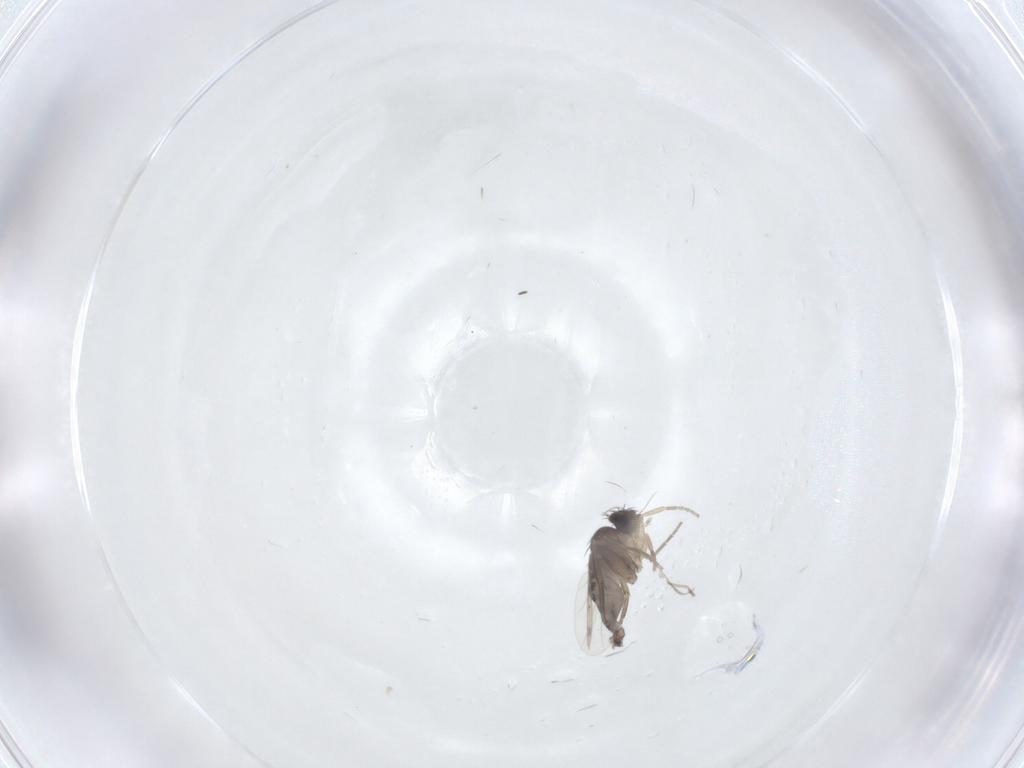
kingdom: Animalia
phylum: Arthropoda
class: Insecta
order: Diptera
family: Phoridae
